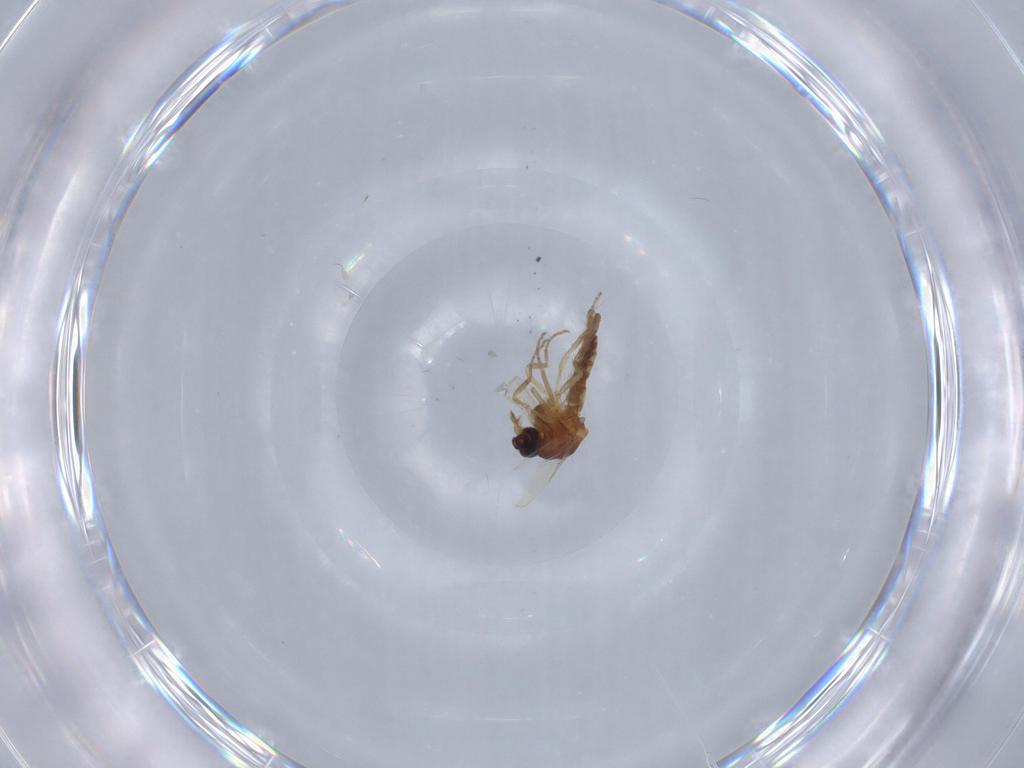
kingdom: Animalia
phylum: Arthropoda
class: Insecta
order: Diptera
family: Ceratopogonidae
